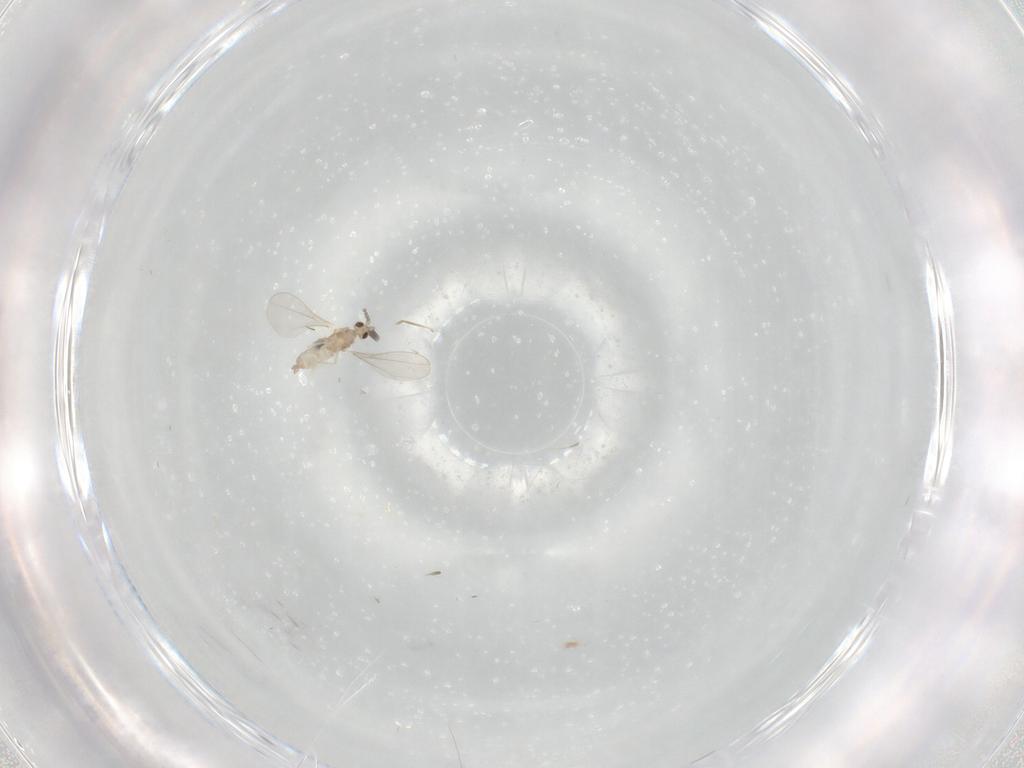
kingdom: Animalia
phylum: Arthropoda
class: Insecta
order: Diptera
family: Cecidomyiidae
